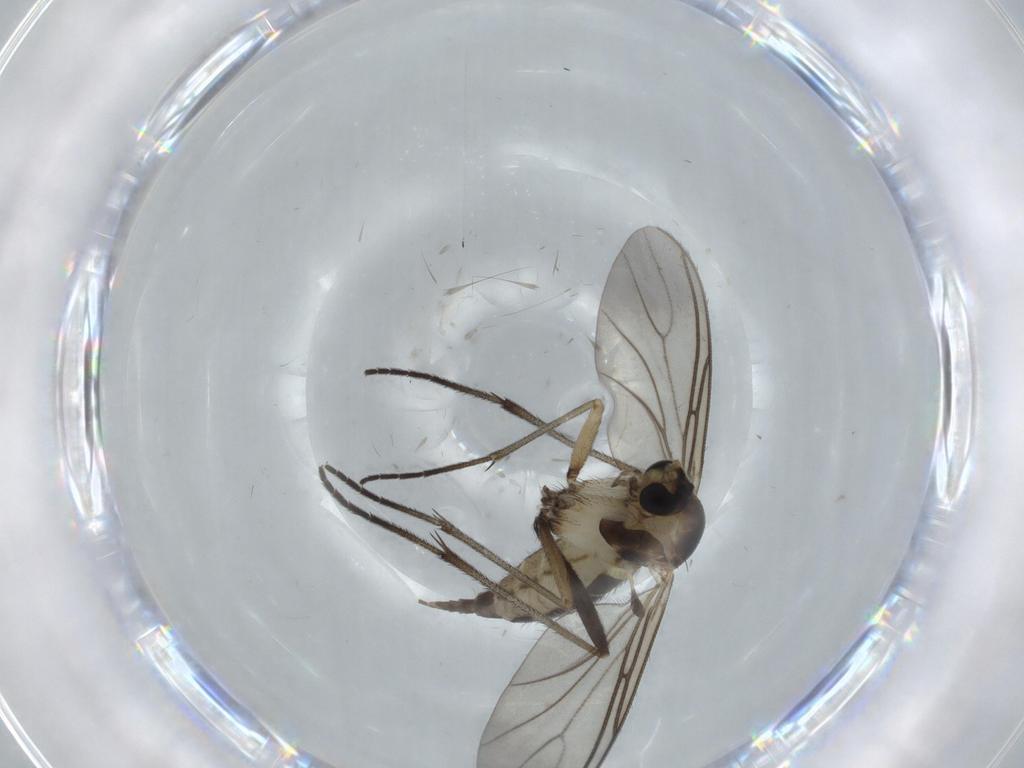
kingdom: Animalia
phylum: Arthropoda
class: Insecta
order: Diptera
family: Sciaridae
